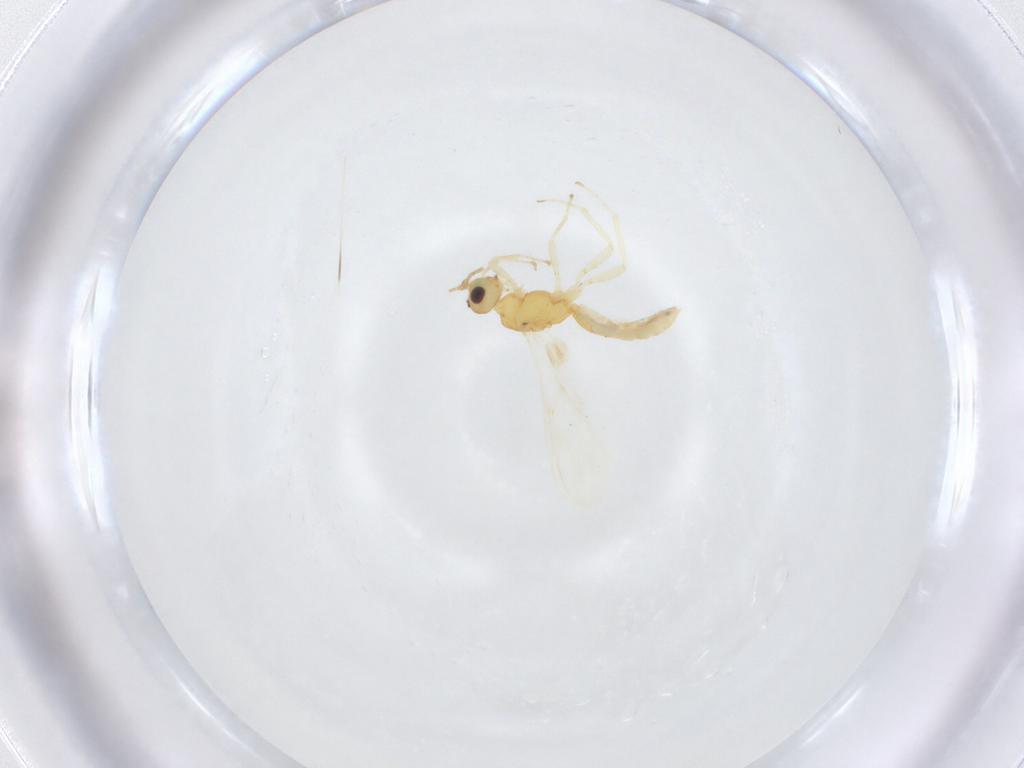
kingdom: Animalia
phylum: Arthropoda
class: Insecta
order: Hymenoptera
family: Braconidae
